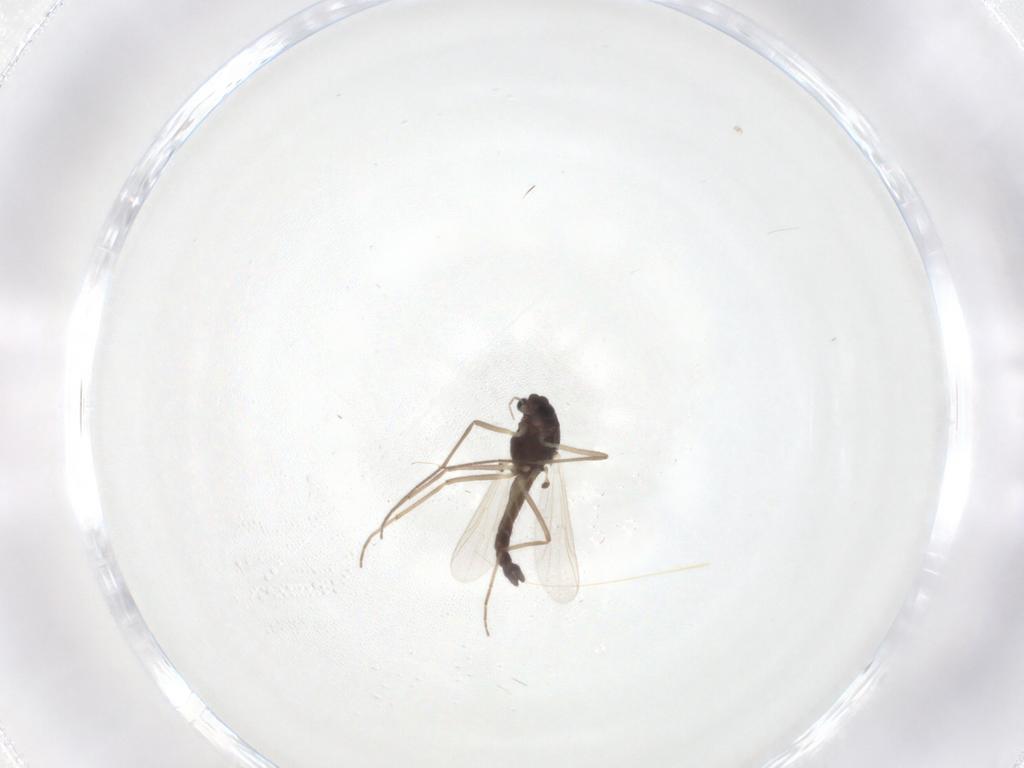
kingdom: Animalia
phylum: Arthropoda
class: Insecta
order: Diptera
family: Chironomidae
